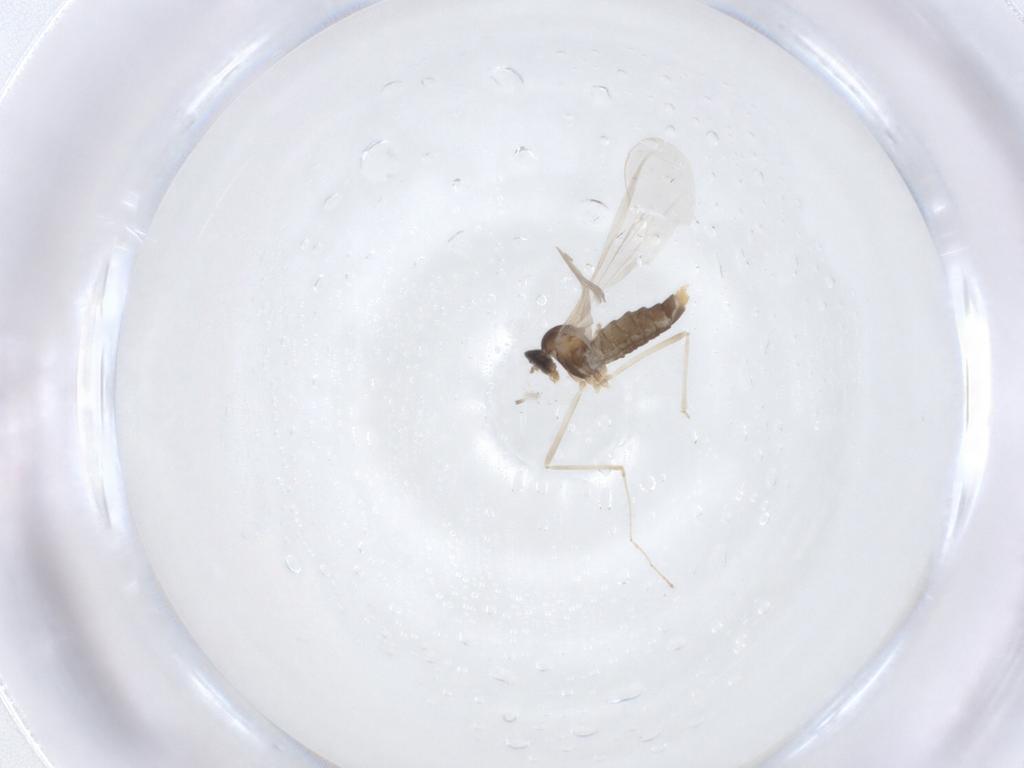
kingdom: Animalia
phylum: Arthropoda
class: Insecta
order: Diptera
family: Cecidomyiidae
